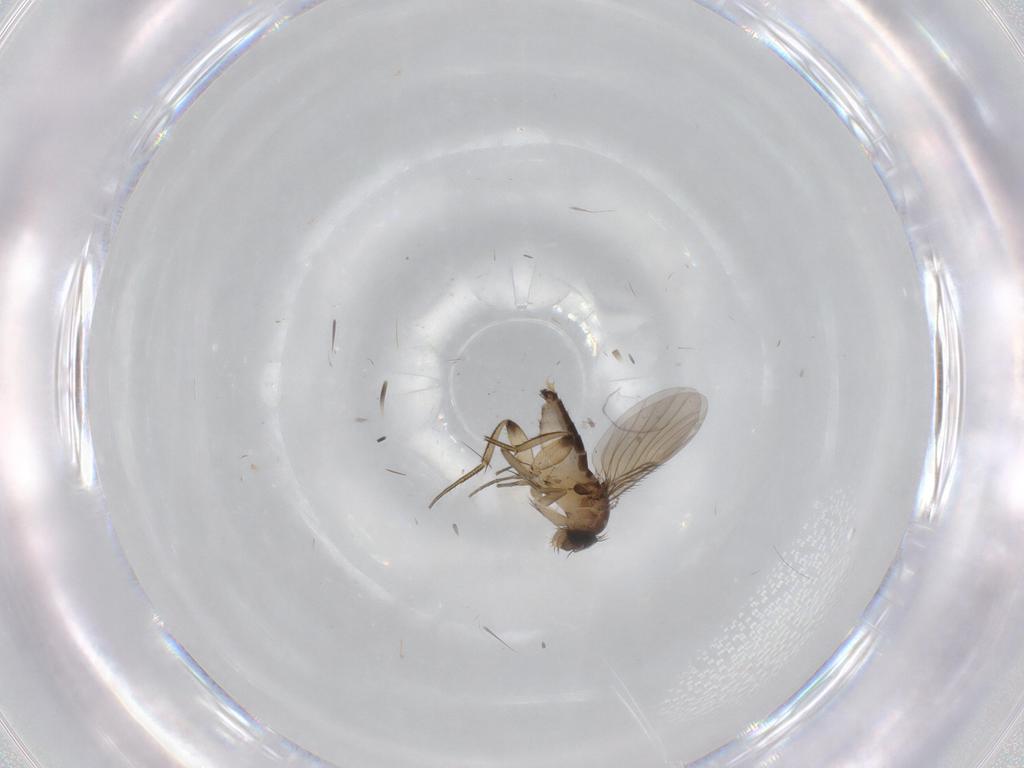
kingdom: Animalia
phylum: Arthropoda
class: Insecta
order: Diptera
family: Phoridae
